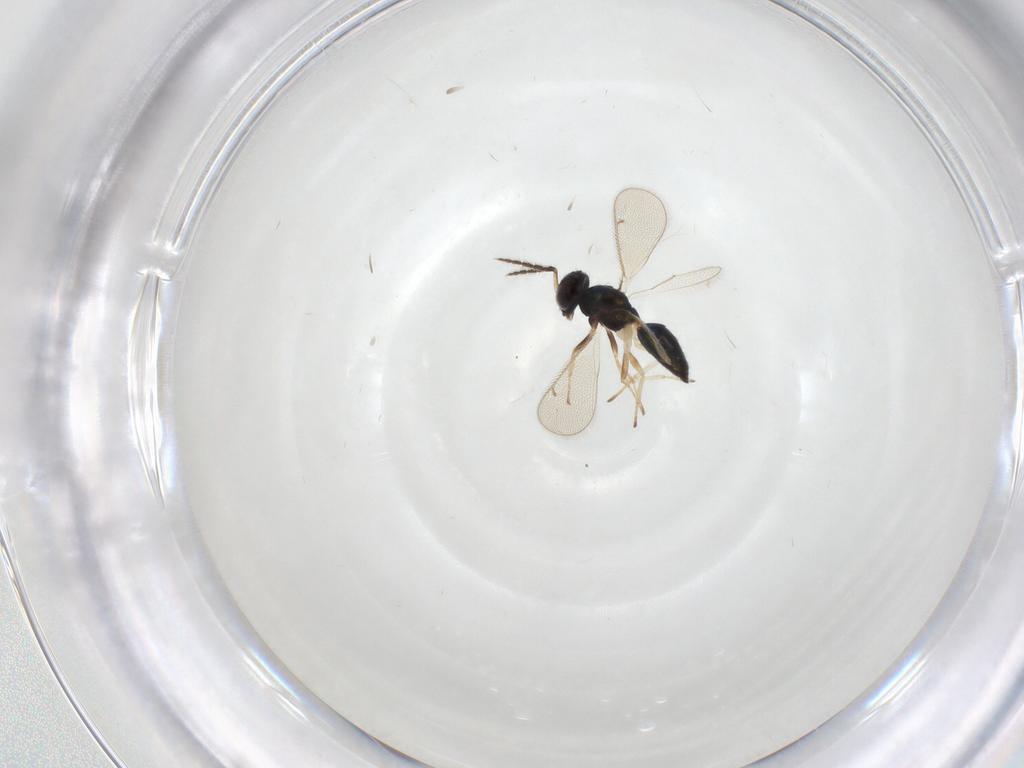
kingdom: Animalia
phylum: Arthropoda
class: Insecta
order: Hymenoptera
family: Eulophidae
